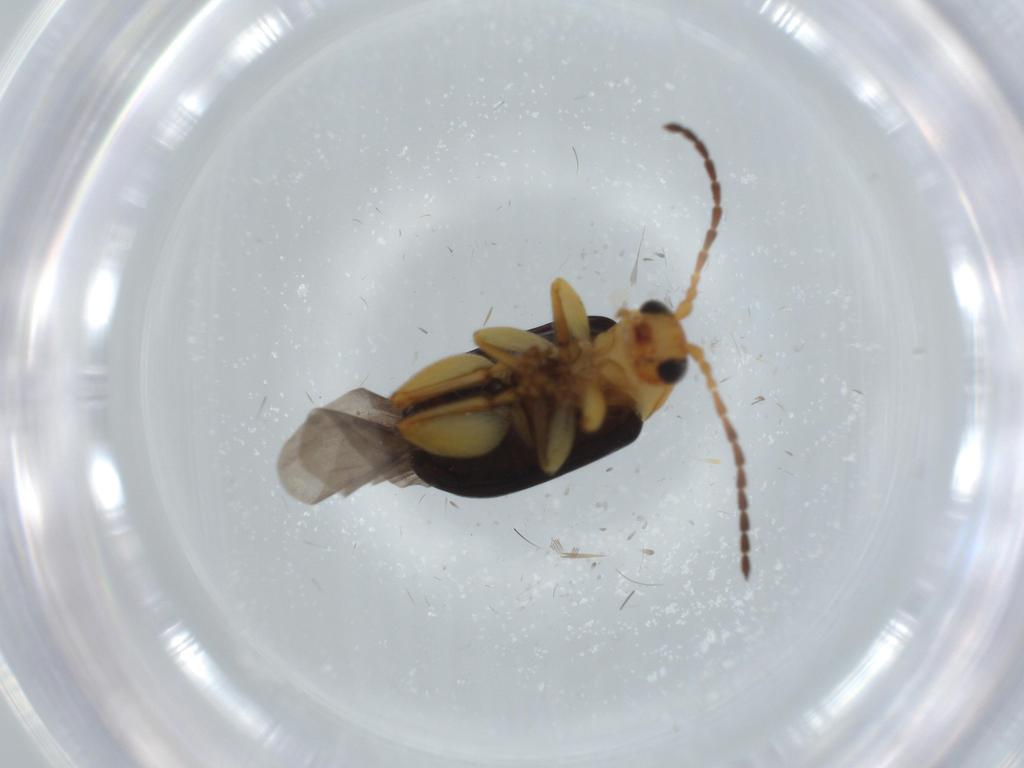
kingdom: Animalia
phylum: Arthropoda
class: Insecta
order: Coleoptera
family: Chrysomelidae
